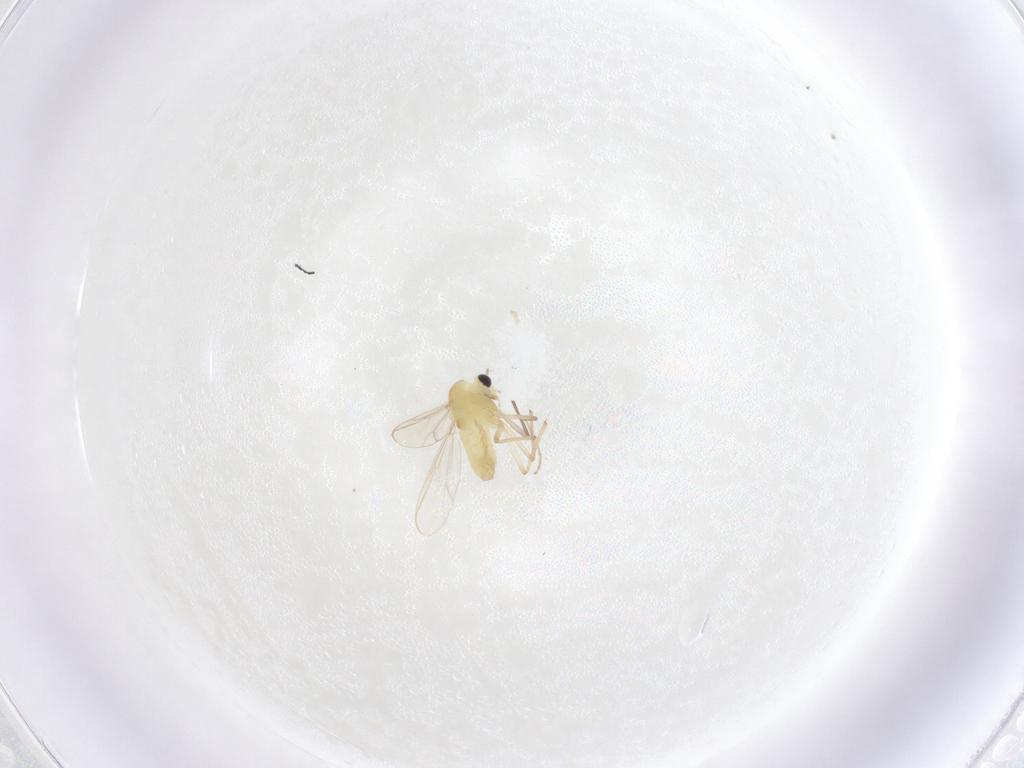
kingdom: Animalia
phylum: Arthropoda
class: Insecta
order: Diptera
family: Chironomidae
